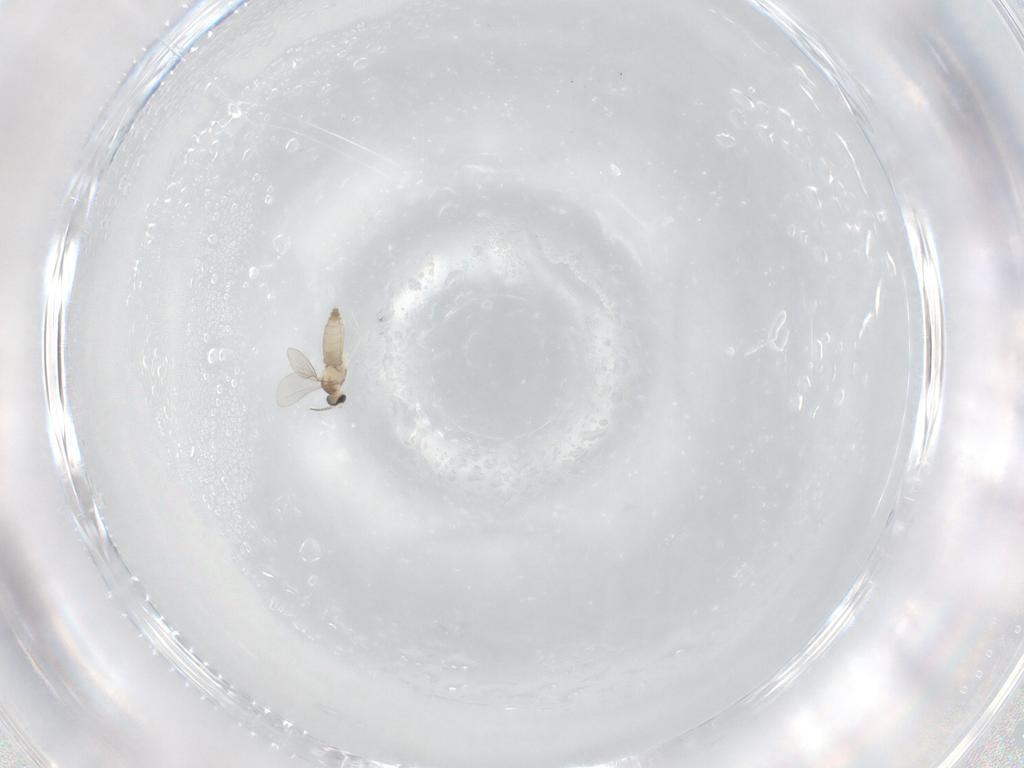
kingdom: Animalia
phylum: Arthropoda
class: Insecta
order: Diptera
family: Cecidomyiidae
